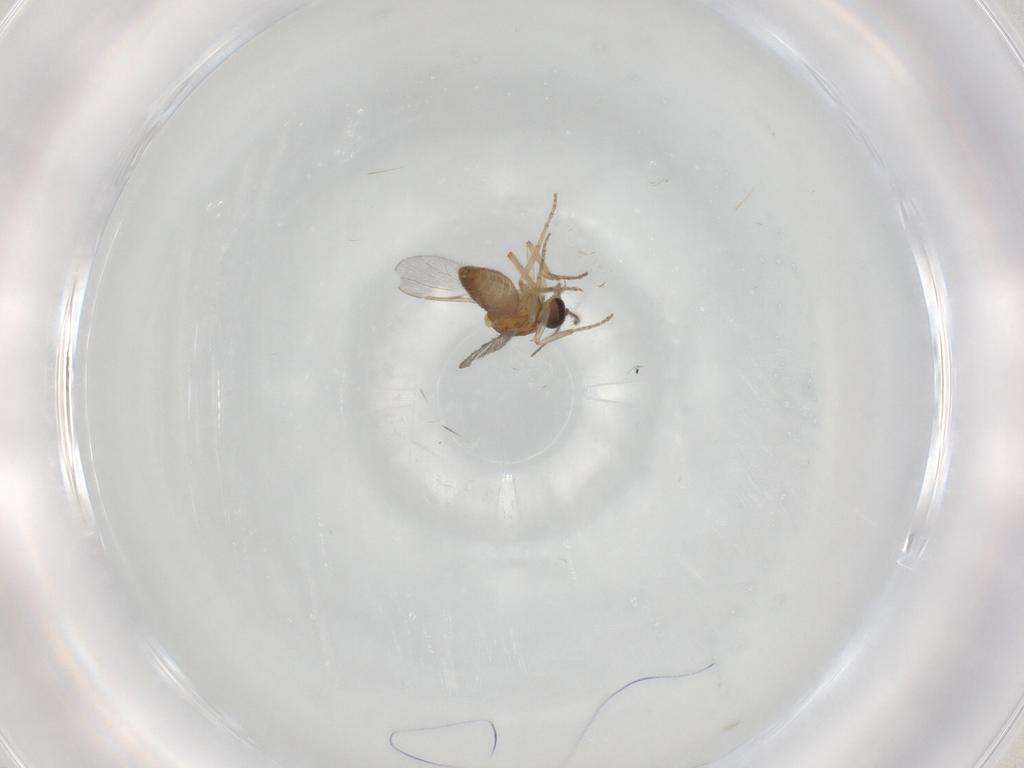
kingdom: Animalia
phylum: Arthropoda
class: Insecta
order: Diptera
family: Ceratopogonidae
